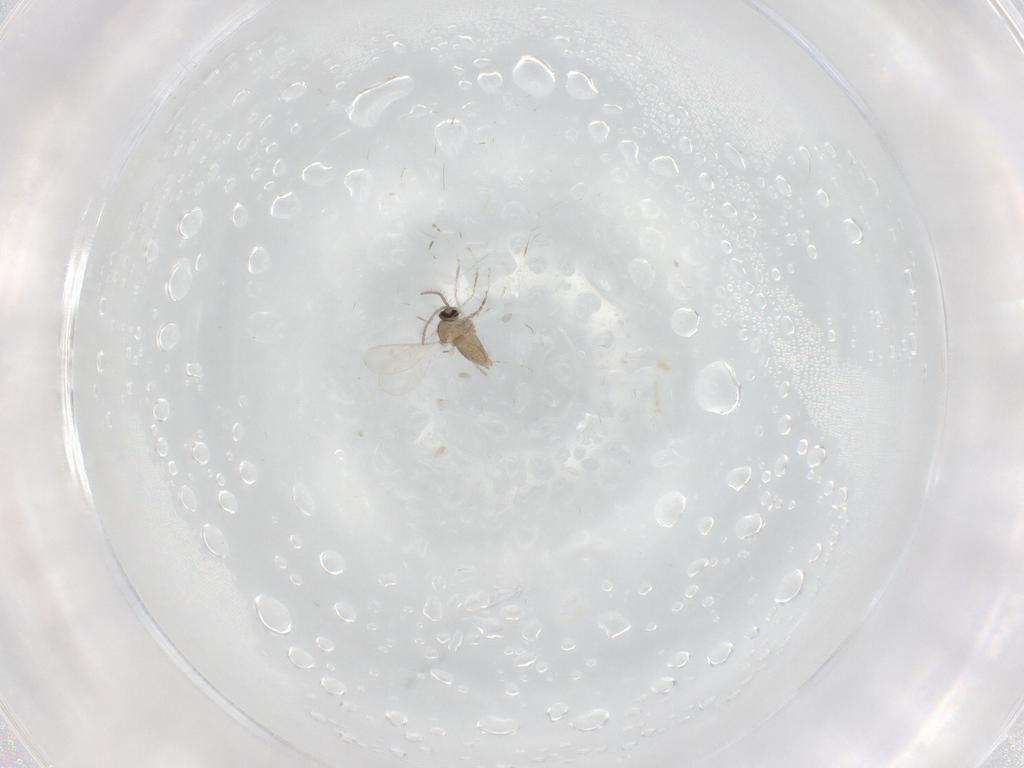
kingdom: Animalia
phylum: Arthropoda
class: Insecta
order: Diptera
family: Cecidomyiidae
